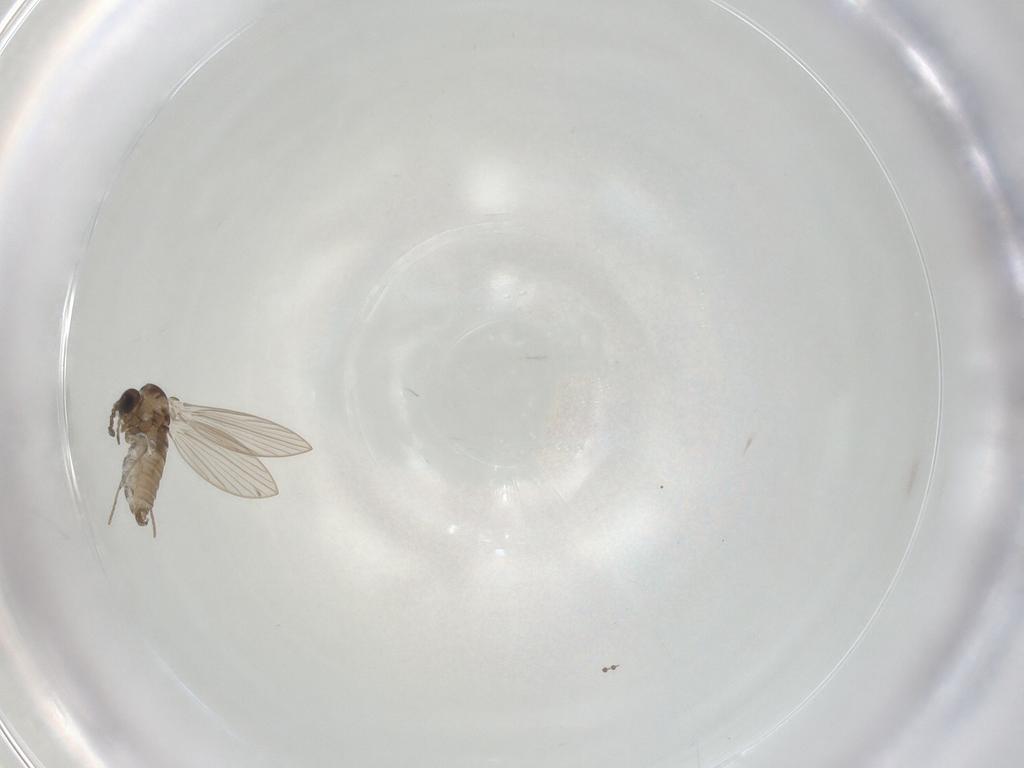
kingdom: Animalia
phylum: Arthropoda
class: Insecta
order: Diptera
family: Psychodidae
